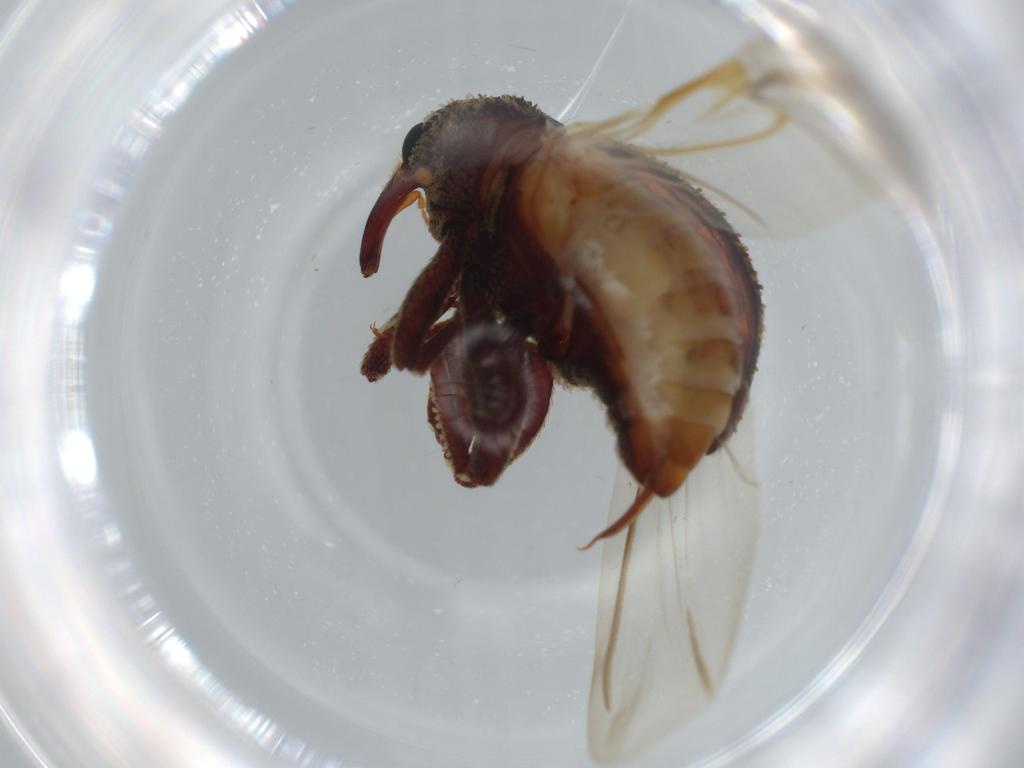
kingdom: Animalia
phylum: Arthropoda
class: Insecta
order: Coleoptera
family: Curculionidae
